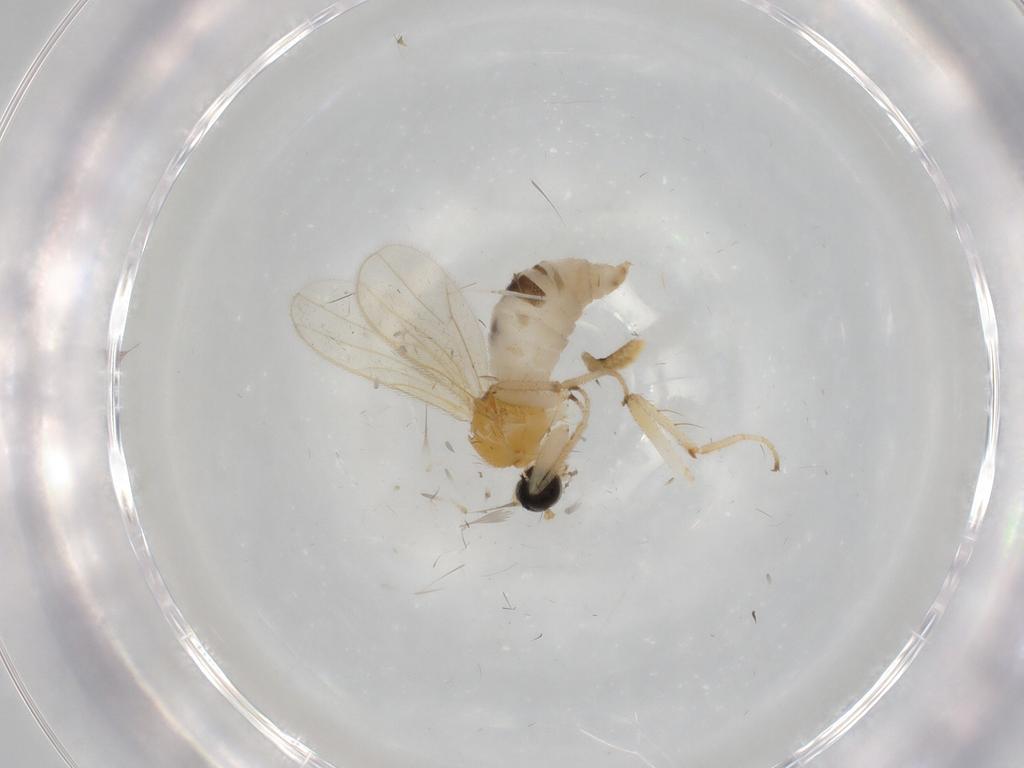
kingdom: Animalia
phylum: Arthropoda
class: Insecta
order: Diptera
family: Hybotidae
